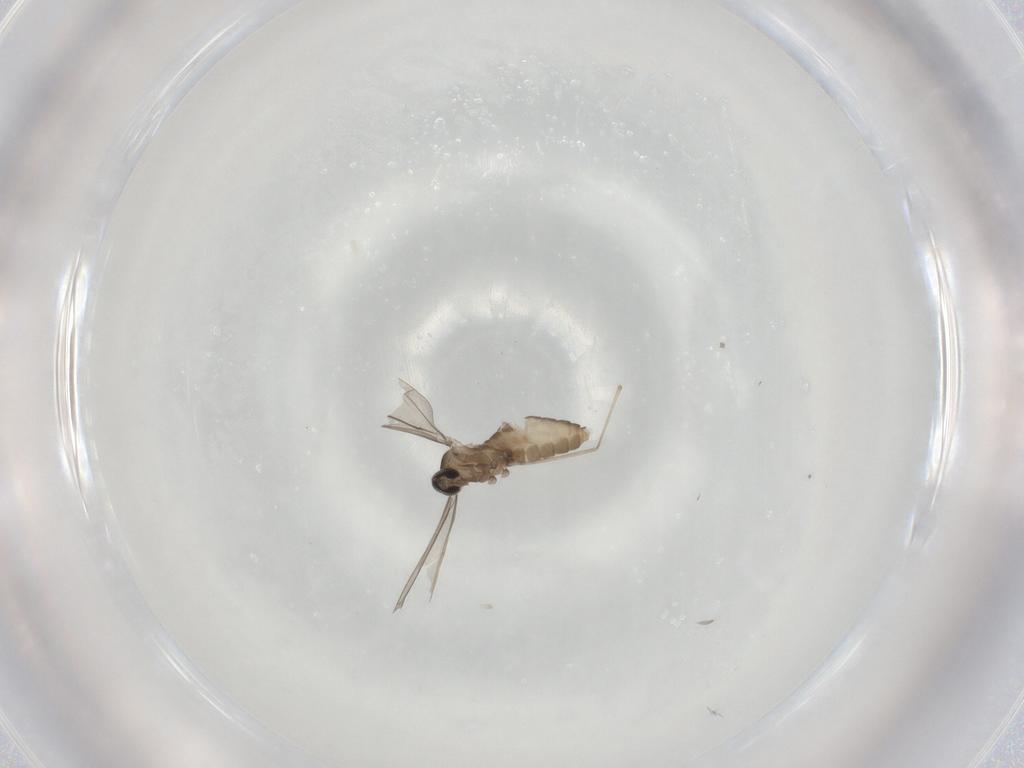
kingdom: Animalia
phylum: Arthropoda
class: Insecta
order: Diptera
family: Cecidomyiidae
